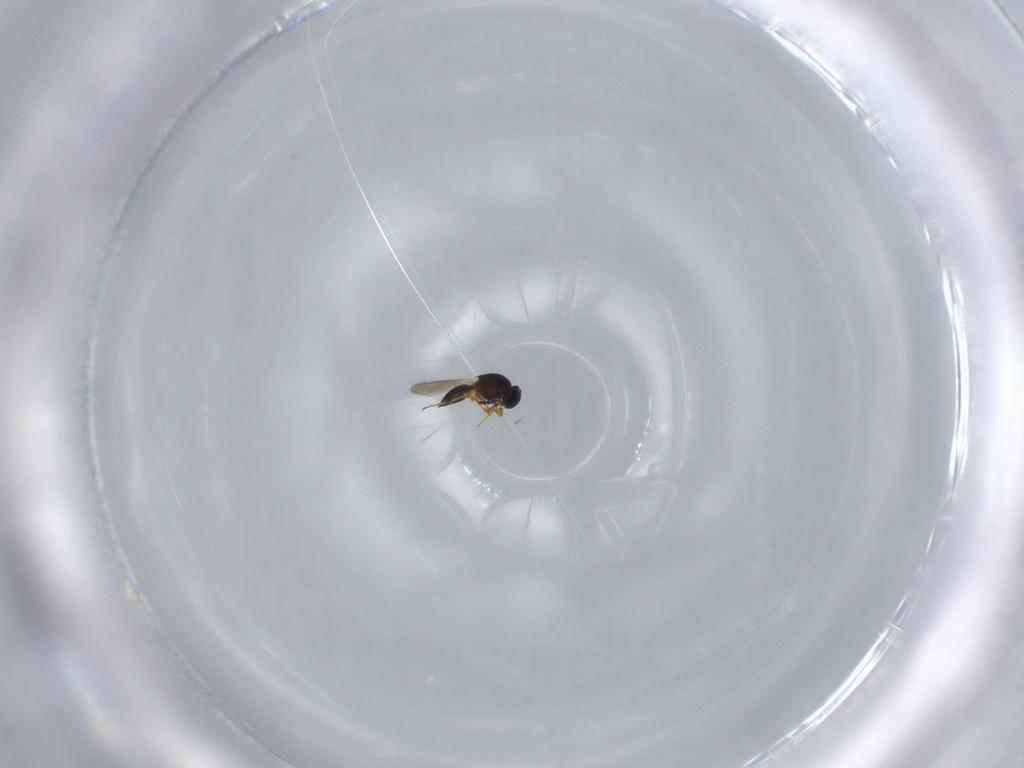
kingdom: Animalia
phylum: Arthropoda
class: Insecta
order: Hymenoptera
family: Platygastridae
